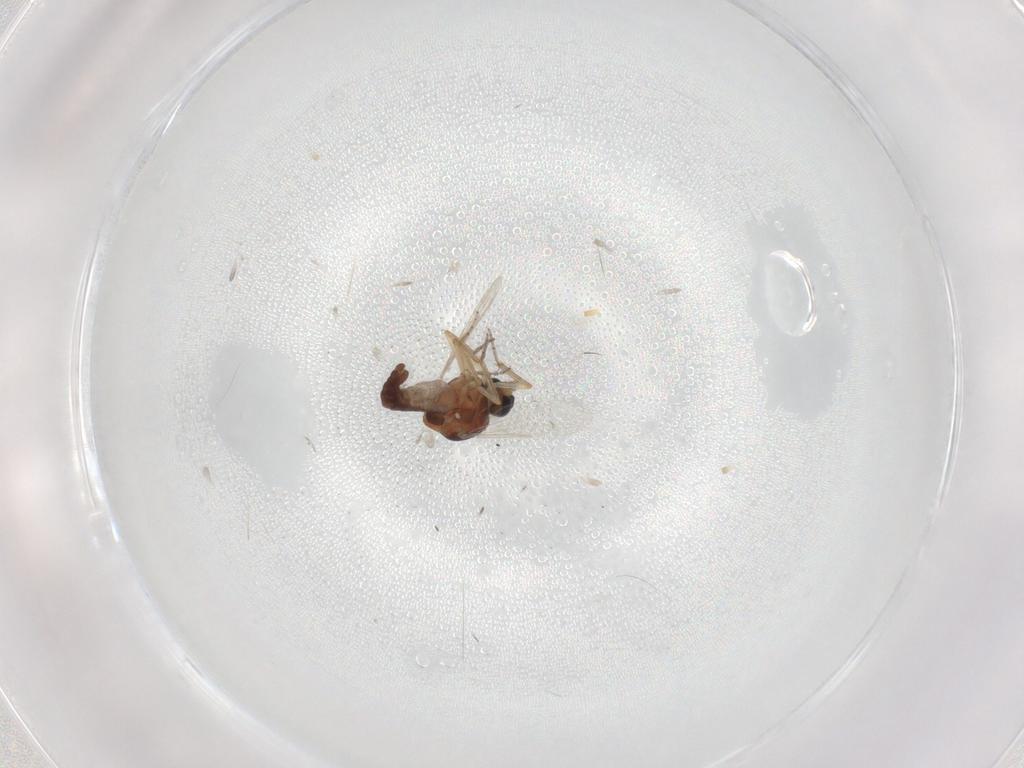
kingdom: Animalia
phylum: Arthropoda
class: Insecta
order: Diptera
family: Ceratopogonidae
